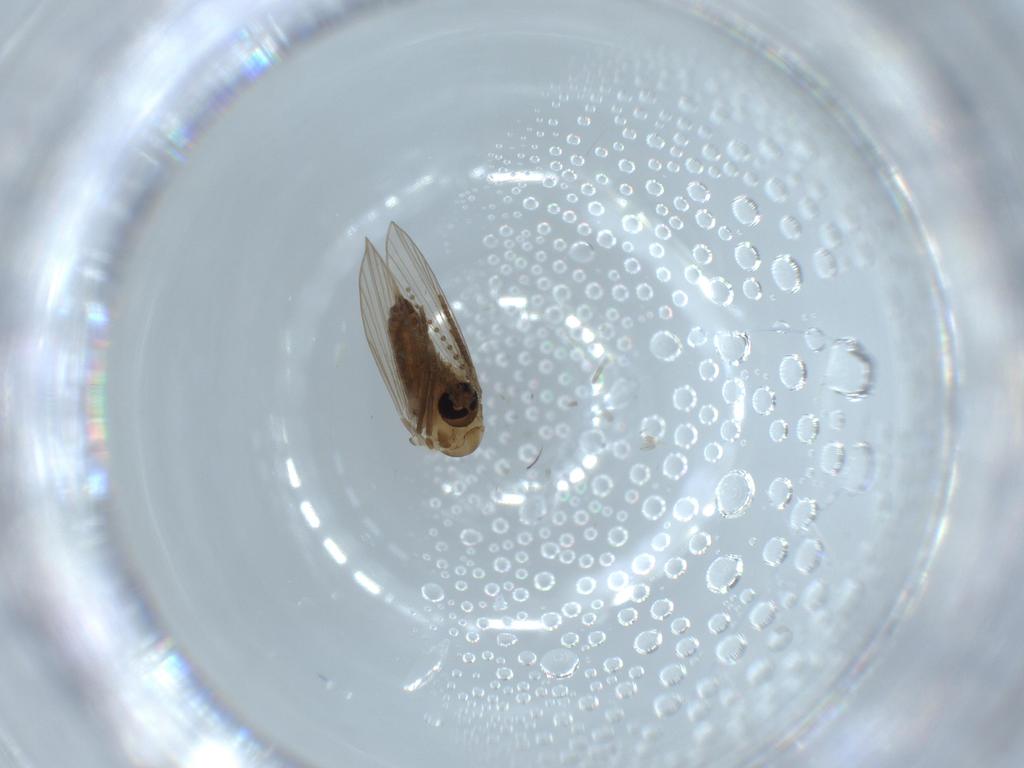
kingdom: Animalia
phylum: Arthropoda
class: Insecta
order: Diptera
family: Psychodidae
